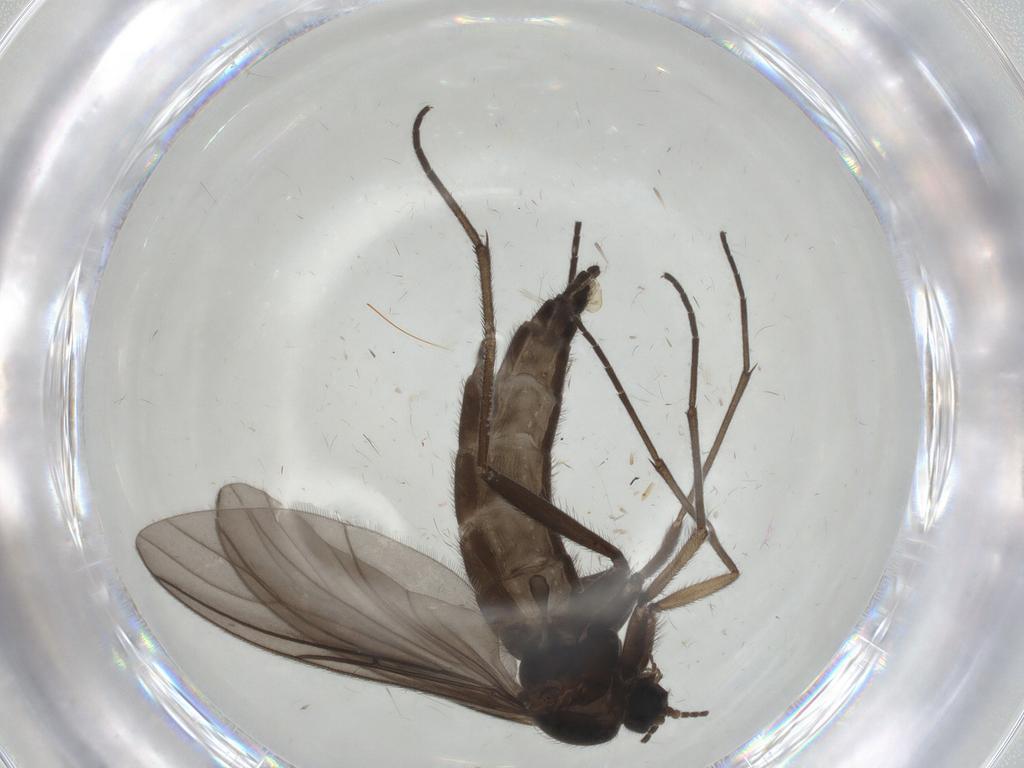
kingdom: Animalia
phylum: Arthropoda
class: Insecta
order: Diptera
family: Sciaridae
